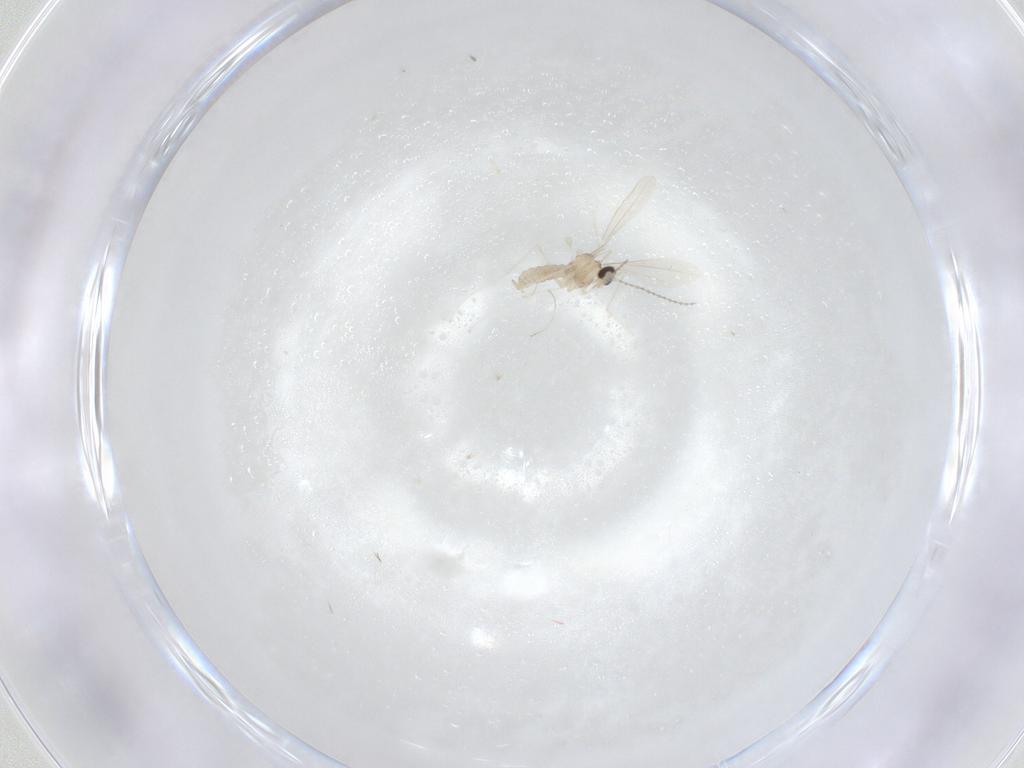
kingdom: Animalia
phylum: Arthropoda
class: Insecta
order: Diptera
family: Cecidomyiidae
